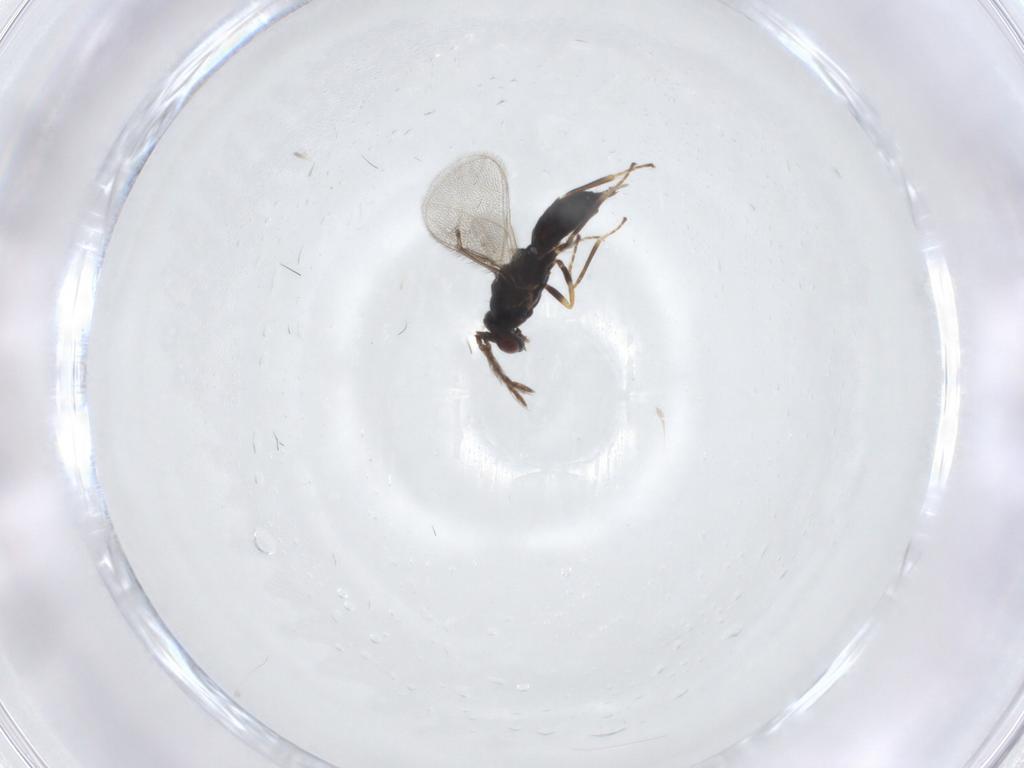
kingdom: Animalia
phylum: Arthropoda
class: Insecta
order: Hymenoptera
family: Eulophidae
